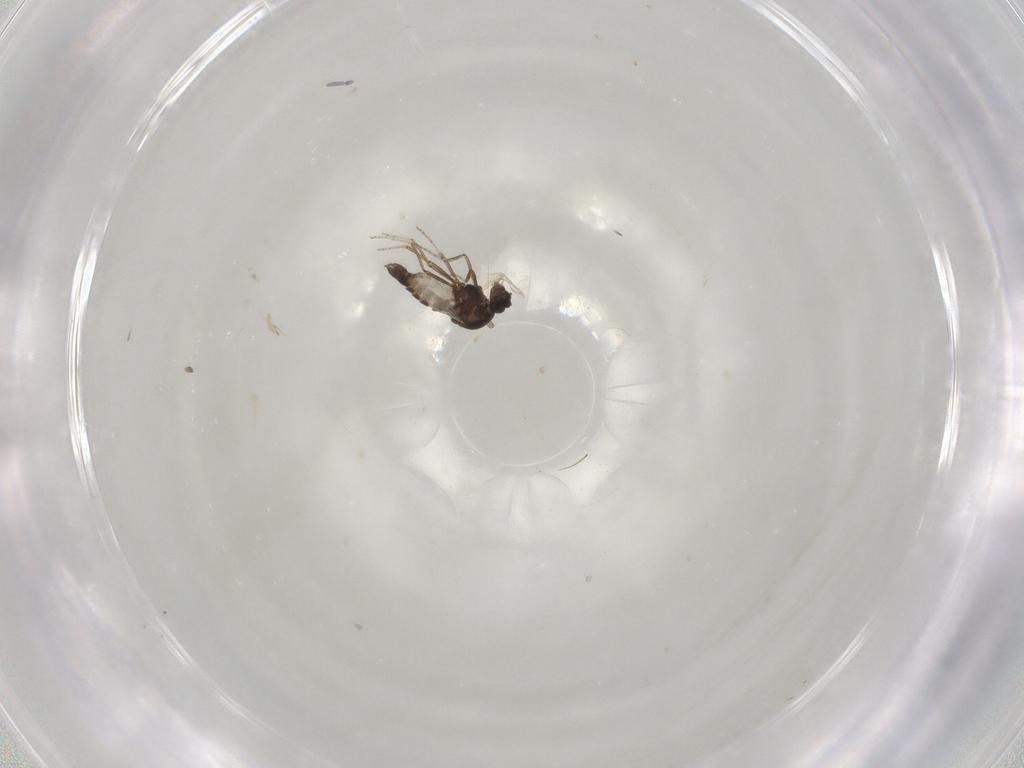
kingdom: Animalia
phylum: Arthropoda
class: Insecta
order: Diptera
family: Ceratopogonidae
